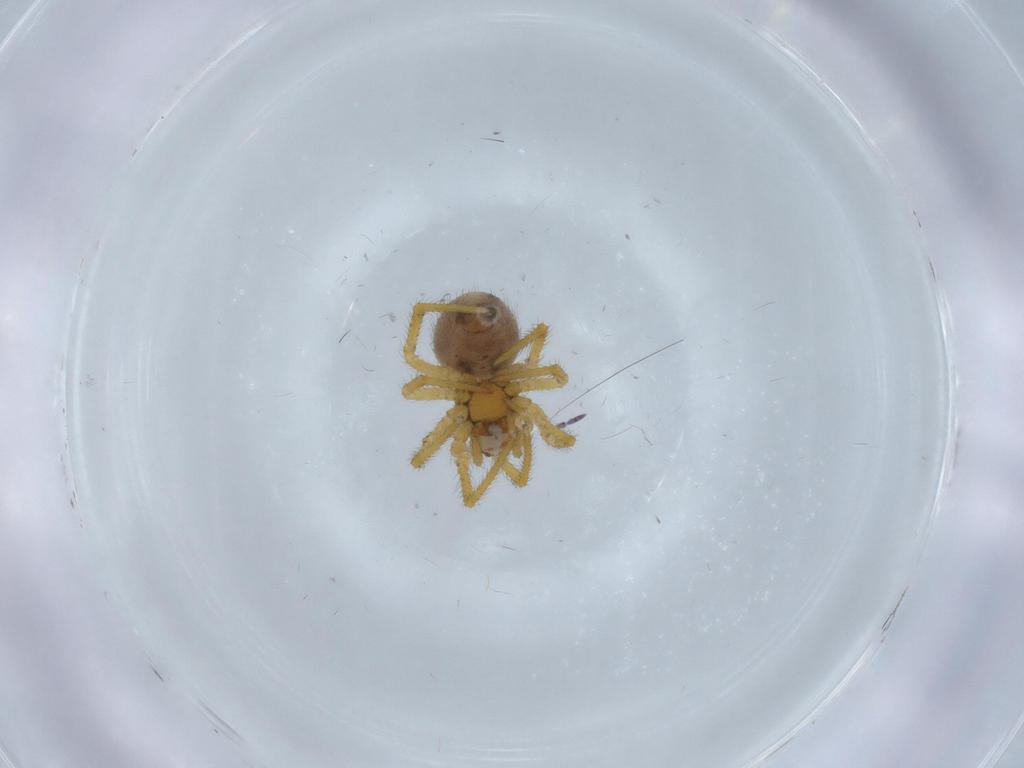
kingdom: Animalia
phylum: Arthropoda
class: Arachnida
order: Araneae
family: Theridiidae
